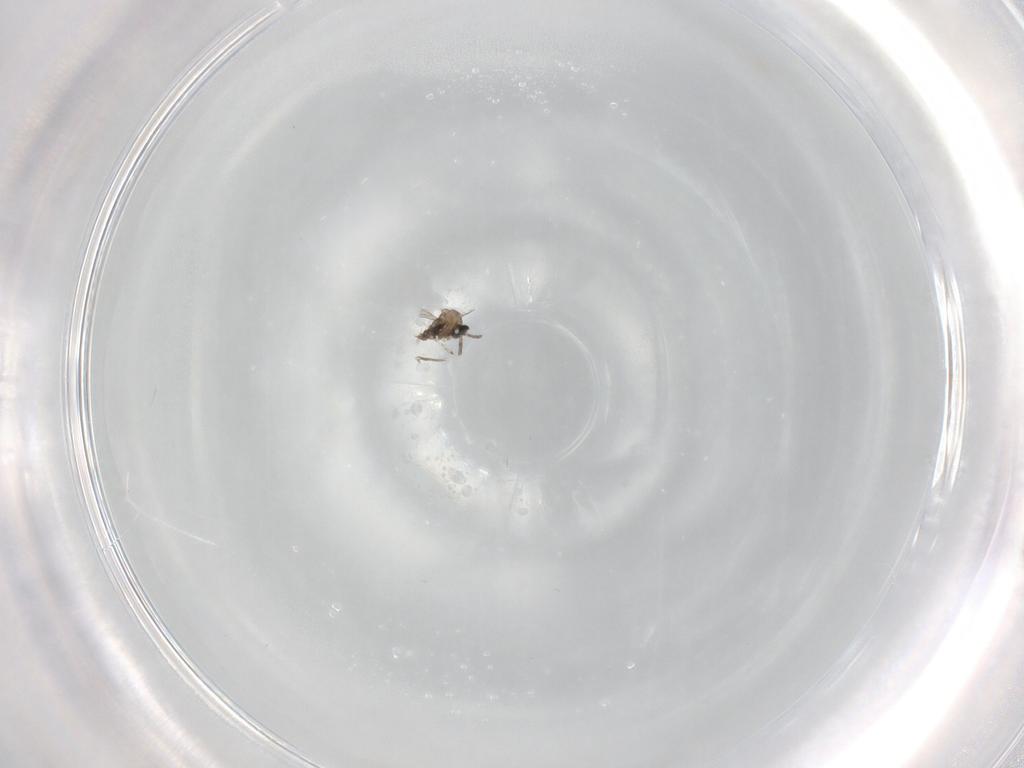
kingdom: Animalia
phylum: Arthropoda
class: Insecta
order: Diptera
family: Cecidomyiidae
